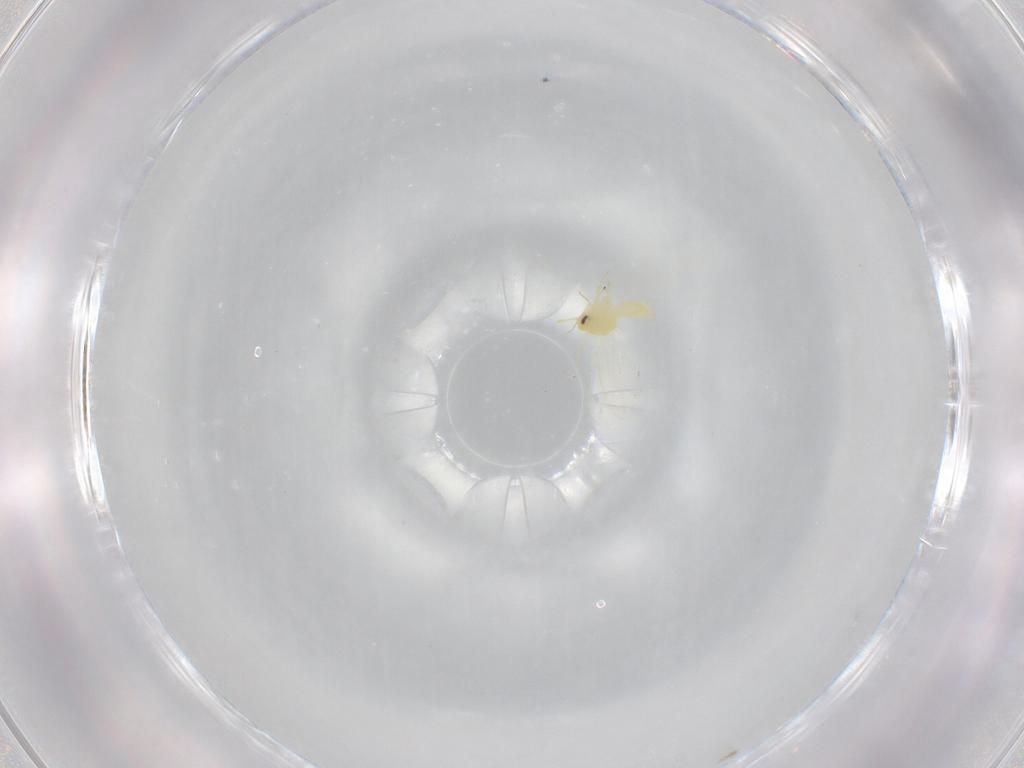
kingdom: Animalia
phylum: Arthropoda
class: Insecta
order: Hemiptera
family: Aleyrodidae
